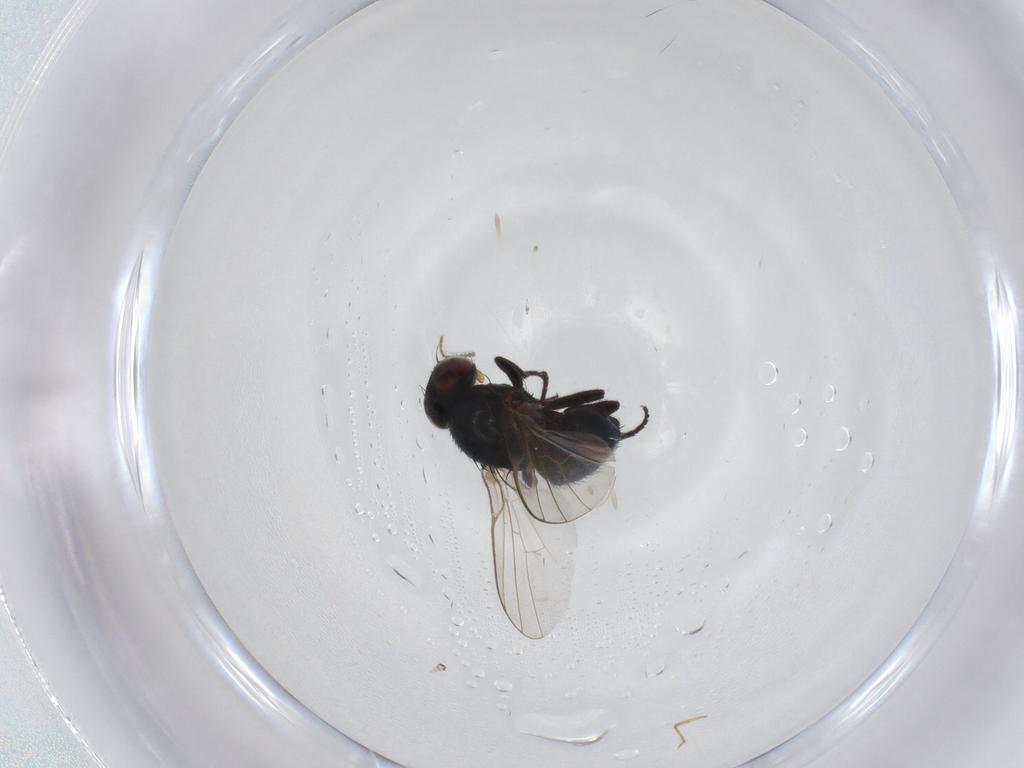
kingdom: Animalia
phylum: Arthropoda
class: Insecta
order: Diptera
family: Agromyzidae
